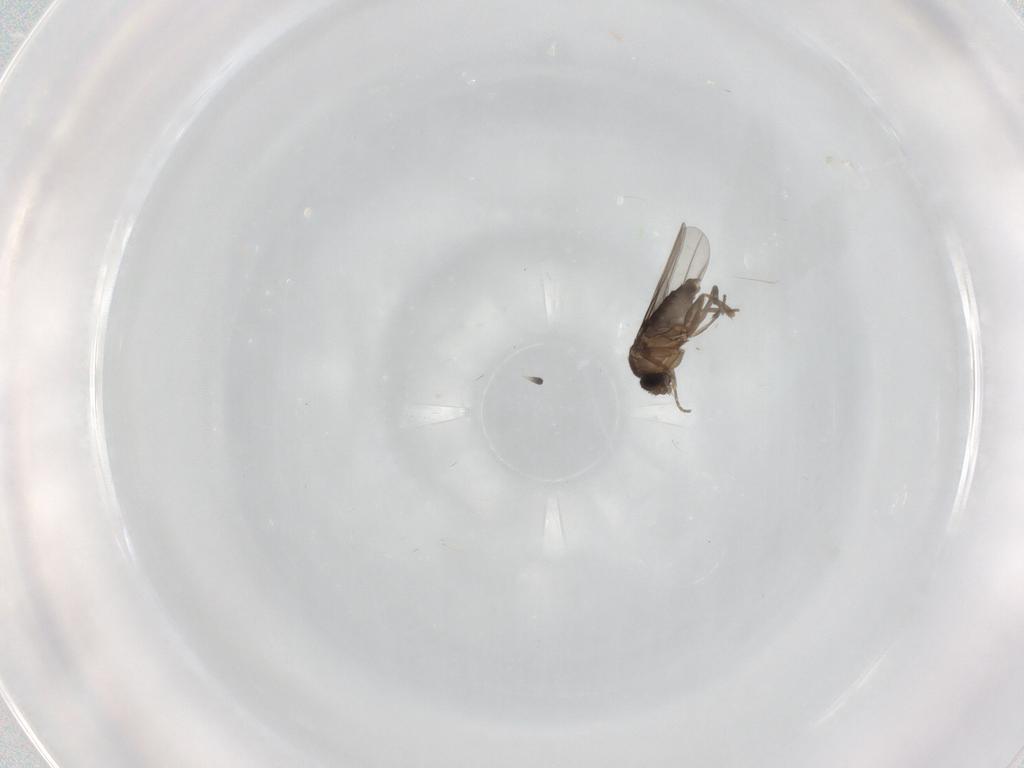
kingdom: Animalia
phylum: Arthropoda
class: Insecta
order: Diptera
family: Phoridae
